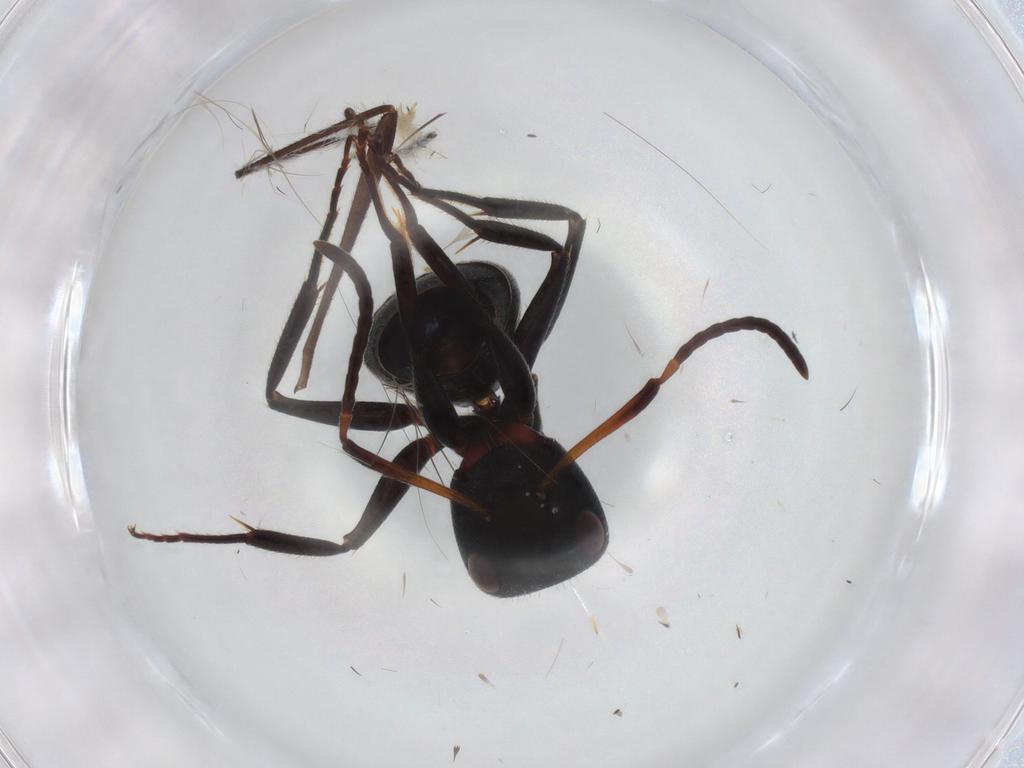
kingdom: Animalia
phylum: Arthropoda
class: Insecta
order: Hymenoptera
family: Formicidae
